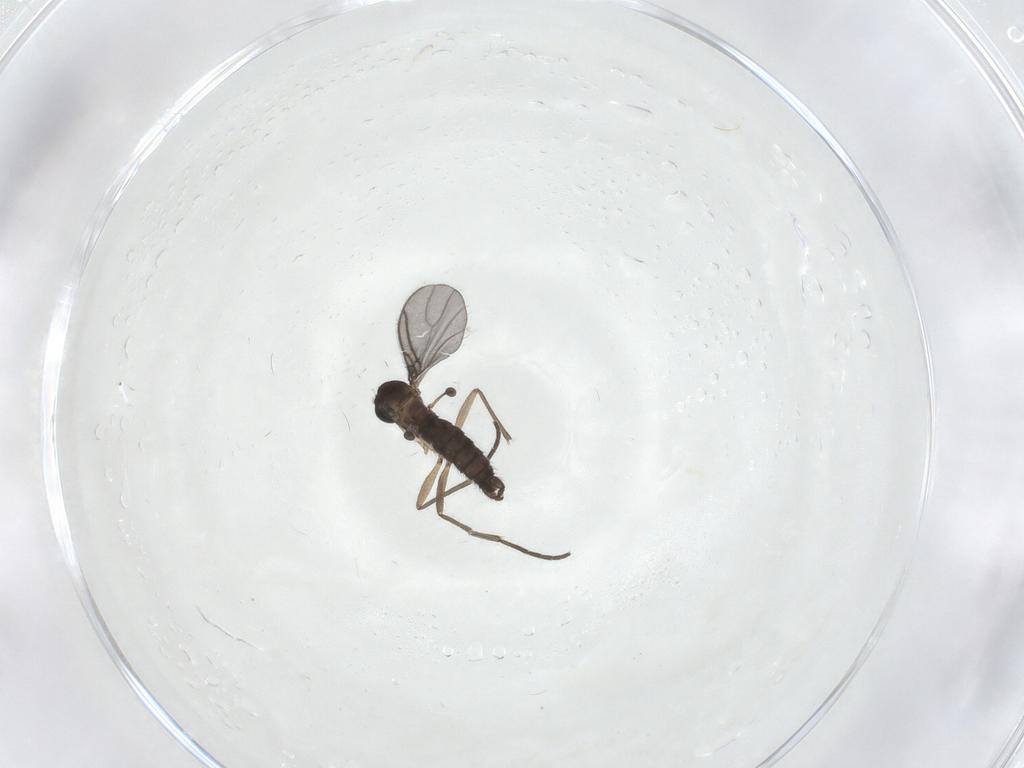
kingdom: Animalia
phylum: Arthropoda
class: Insecta
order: Diptera
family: Sciaridae
